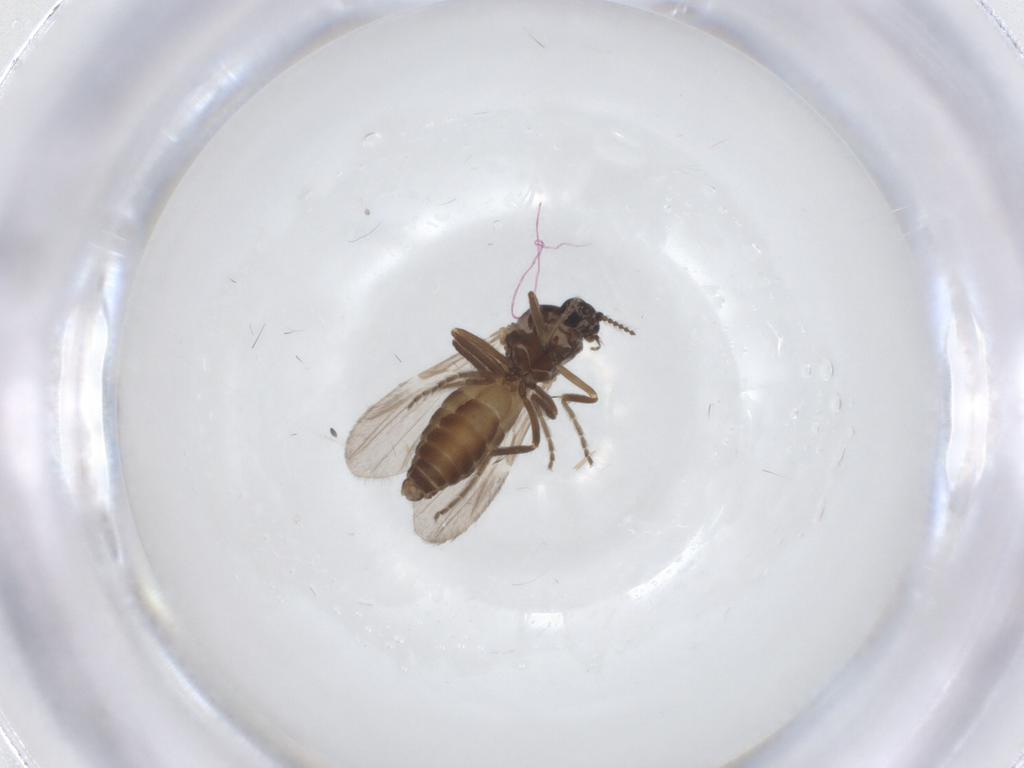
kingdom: Animalia
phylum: Arthropoda
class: Insecta
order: Diptera
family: Ceratopogonidae
